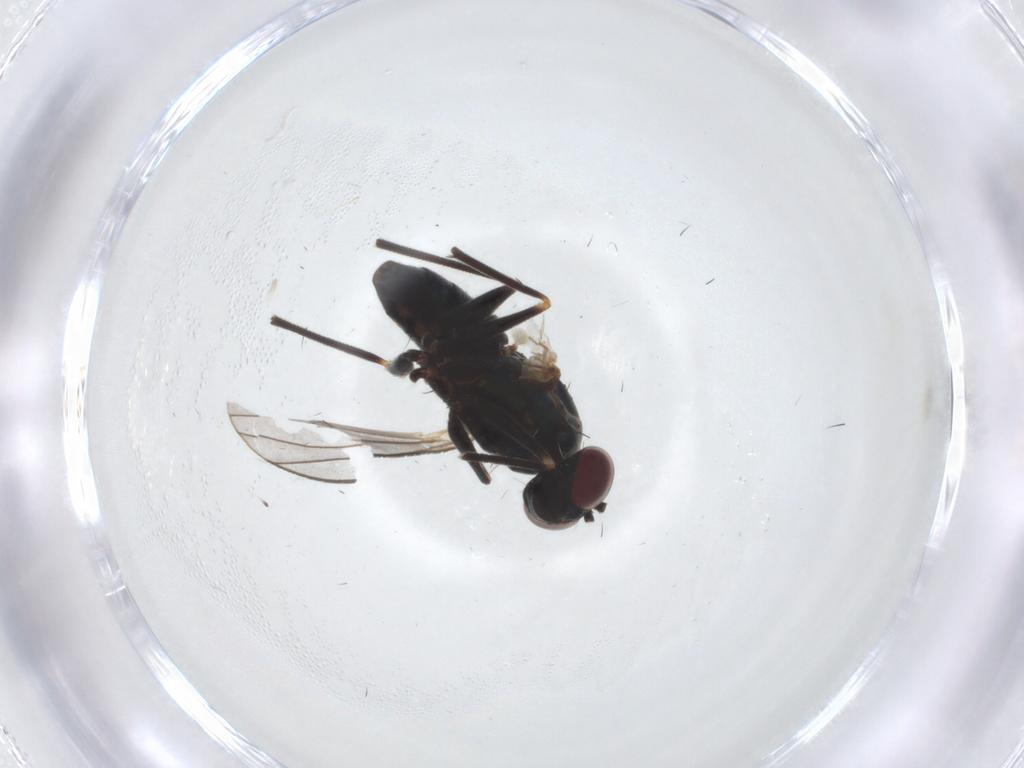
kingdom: Animalia
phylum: Arthropoda
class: Insecta
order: Diptera
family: Dolichopodidae
